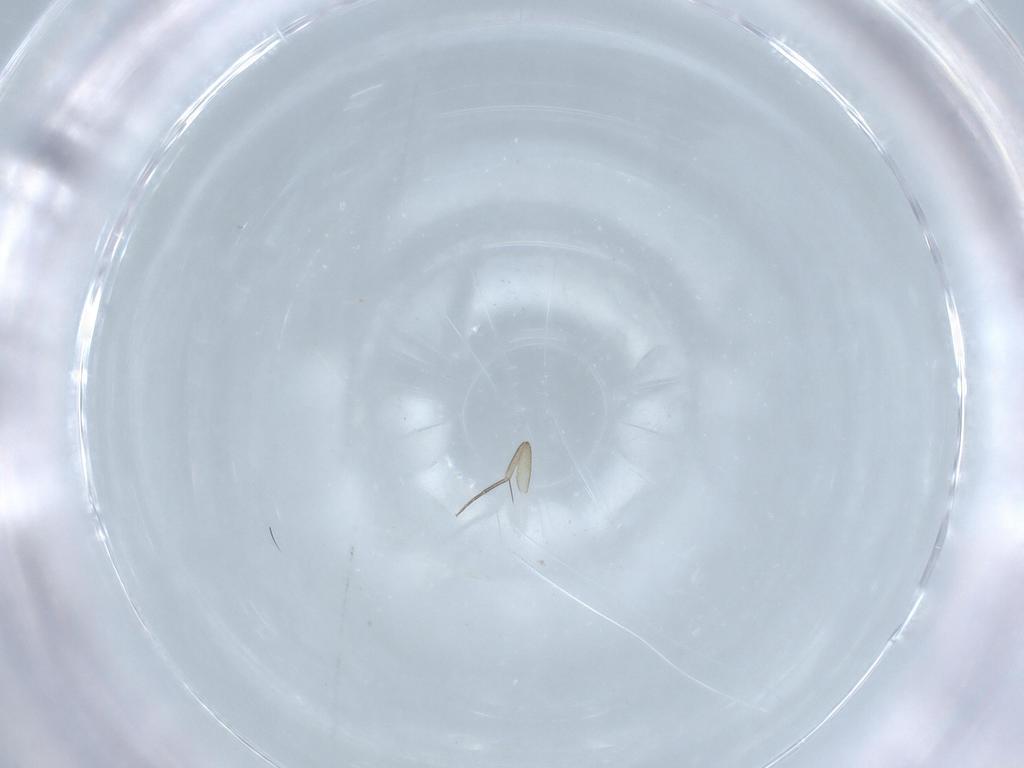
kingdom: Animalia
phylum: Arthropoda
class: Insecta
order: Diptera
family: Phoridae
